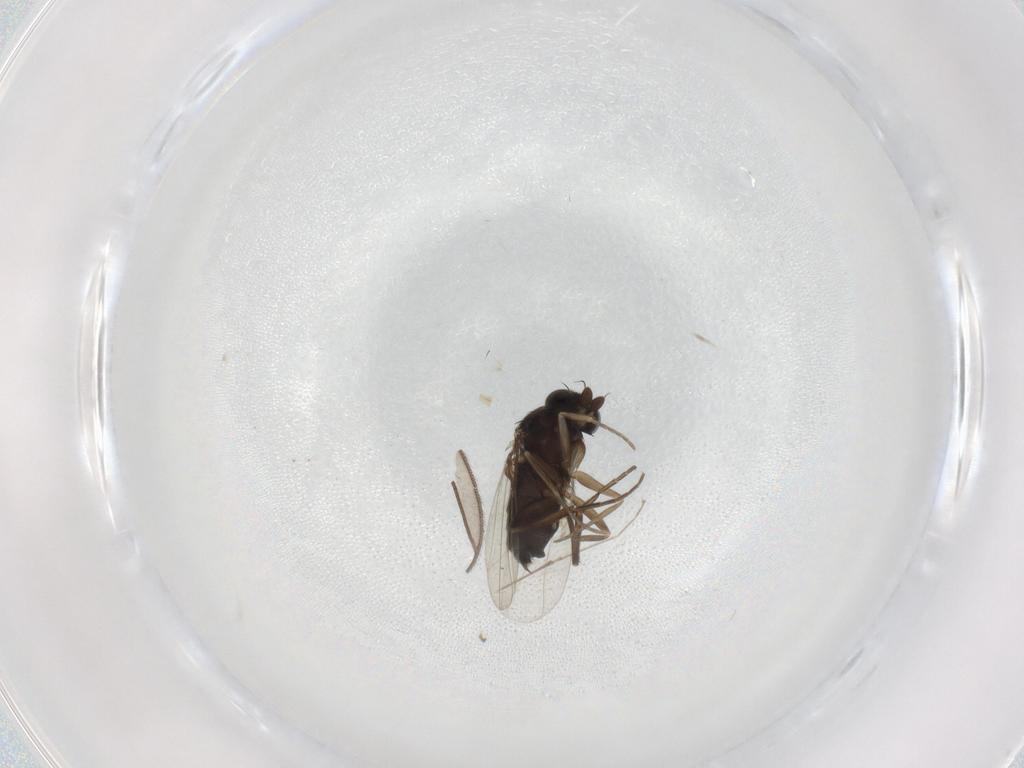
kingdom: Animalia
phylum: Arthropoda
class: Insecta
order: Diptera
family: Phoridae
